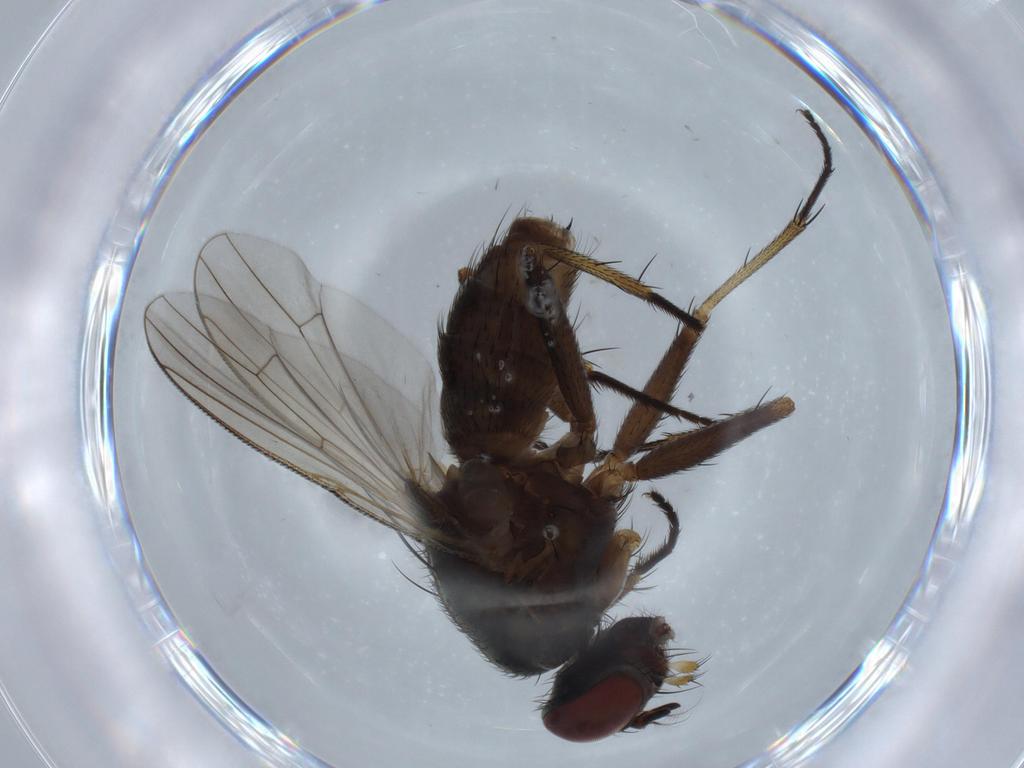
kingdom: Animalia
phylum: Arthropoda
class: Insecta
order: Diptera
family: Muscidae
